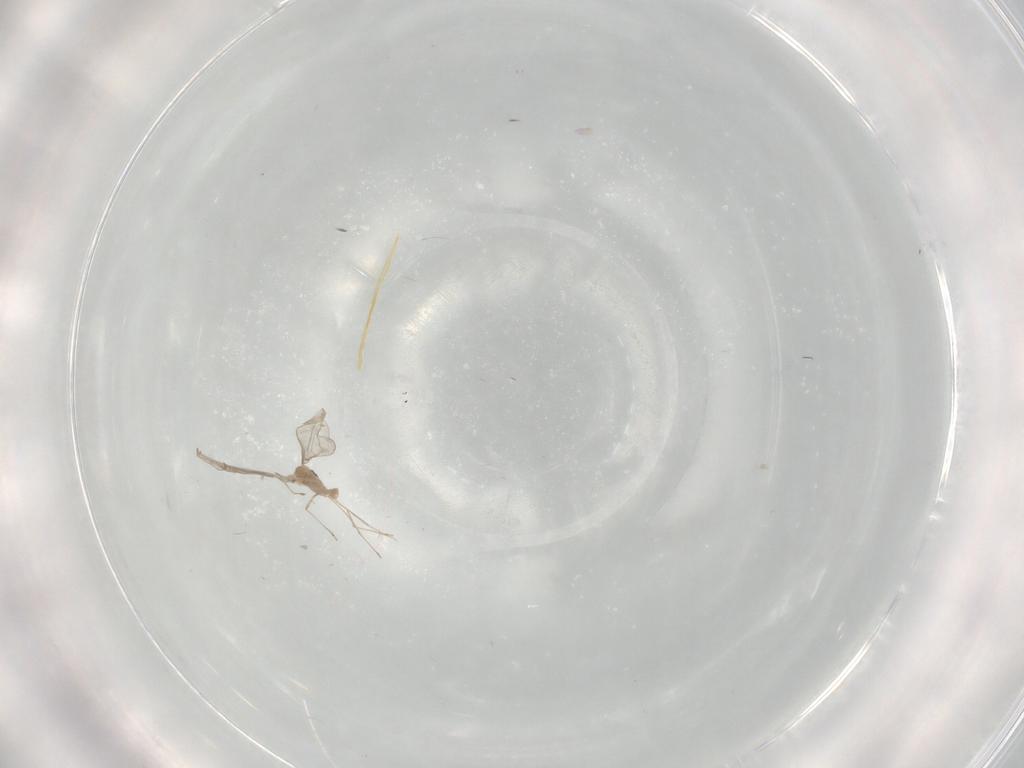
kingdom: Animalia
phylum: Arthropoda
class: Insecta
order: Diptera
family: Cecidomyiidae
